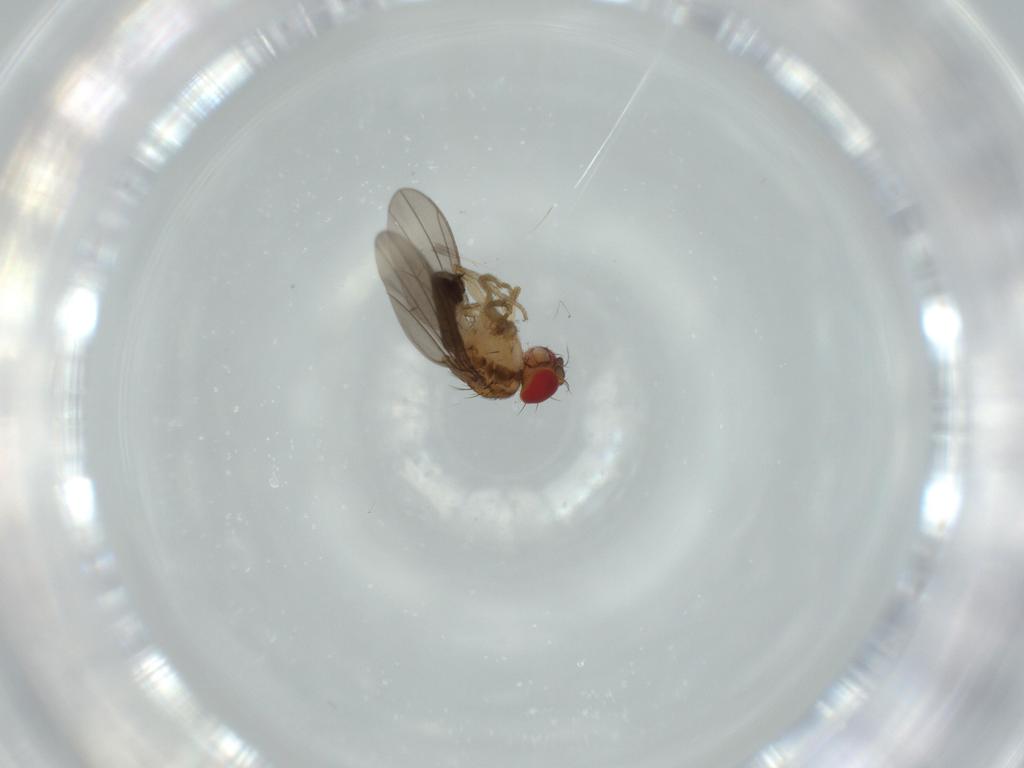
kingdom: Animalia
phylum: Arthropoda
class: Insecta
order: Diptera
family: Drosophilidae
